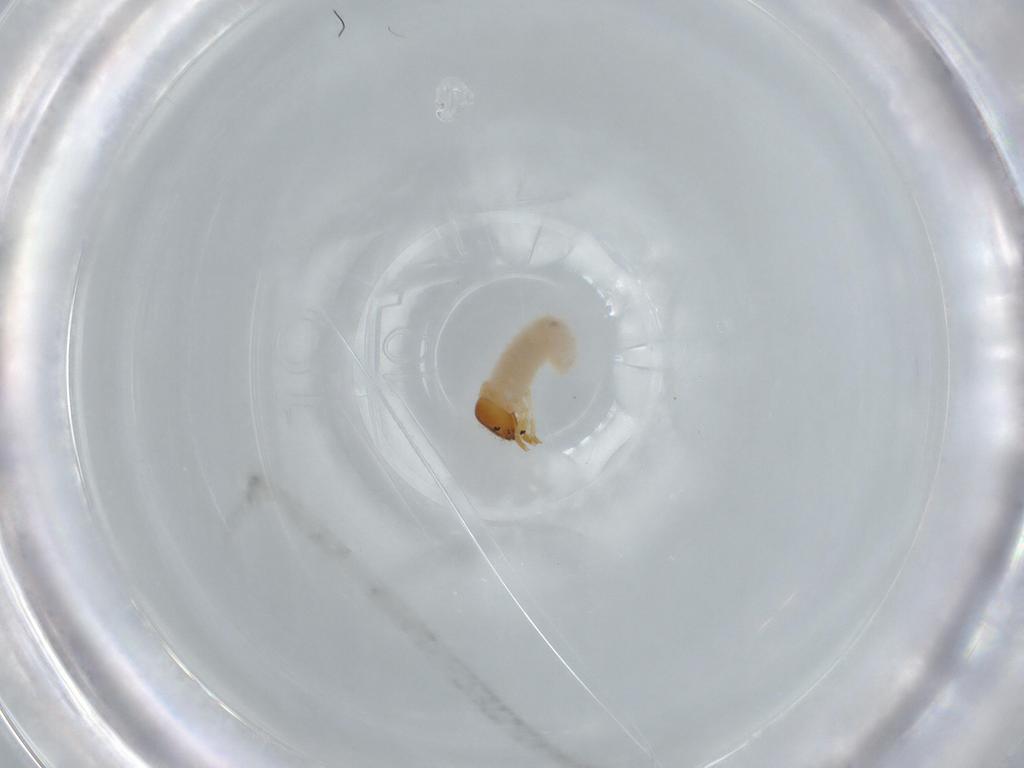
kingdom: Animalia
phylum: Arthropoda
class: Insecta
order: Coleoptera
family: Chrysomelidae
